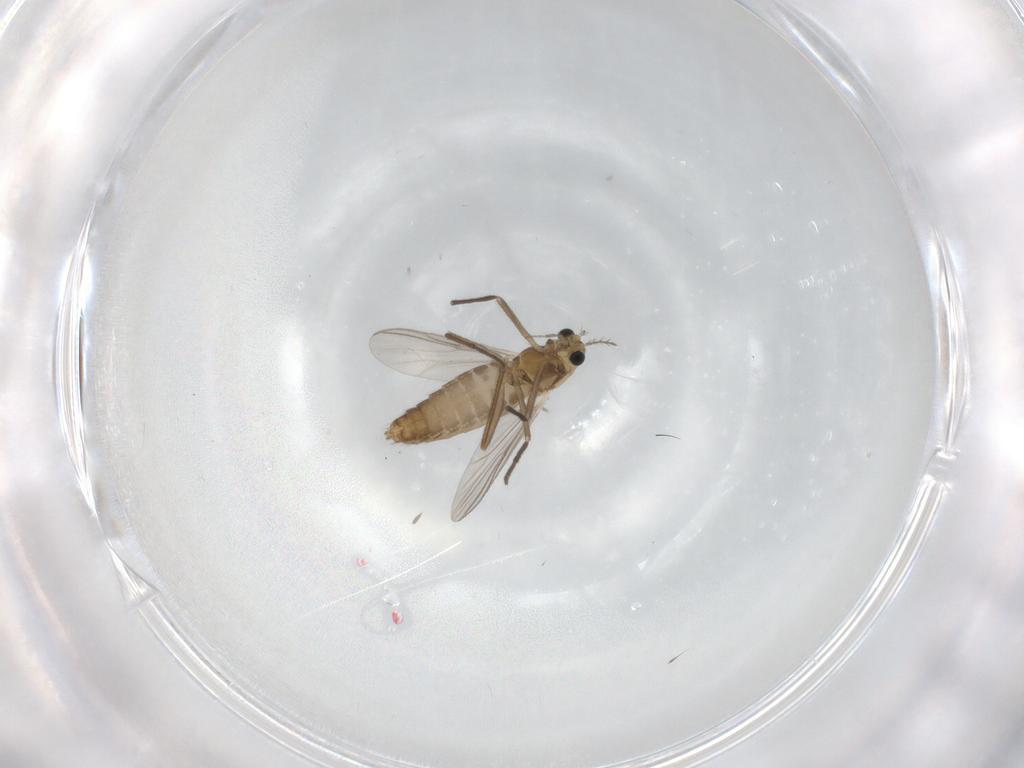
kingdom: Animalia
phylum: Arthropoda
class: Insecta
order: Diptera
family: Chironomidae
